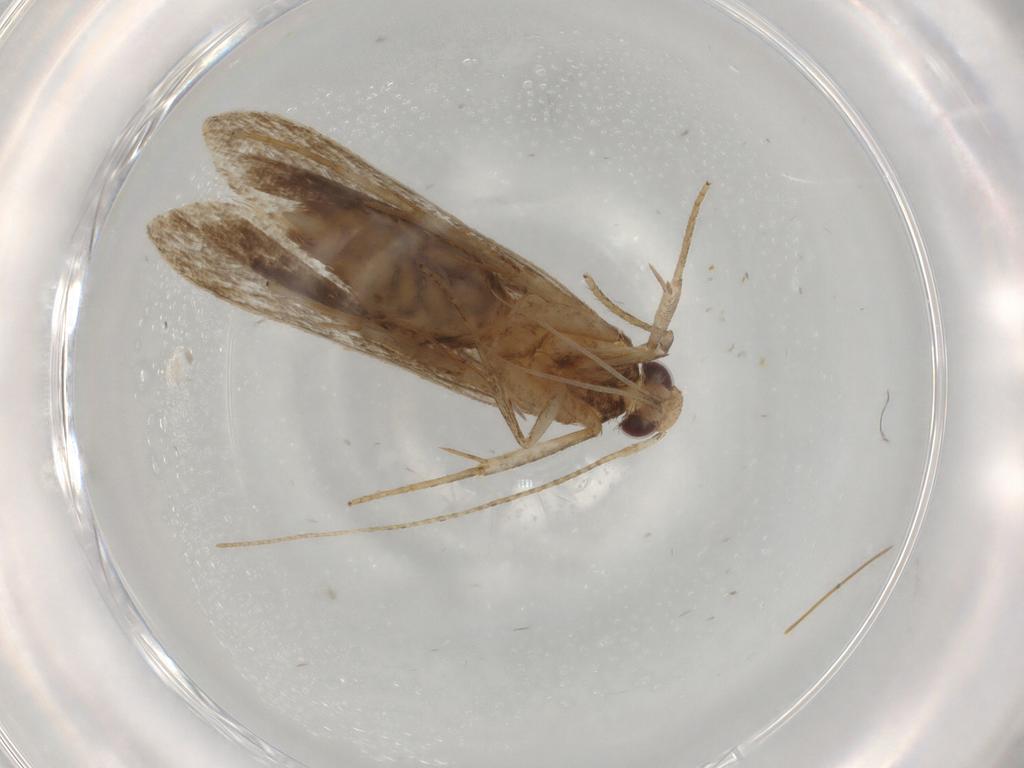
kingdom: Animalia
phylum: Arthropoda
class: Insecta
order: Lepidoptera
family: Gelechiidae
